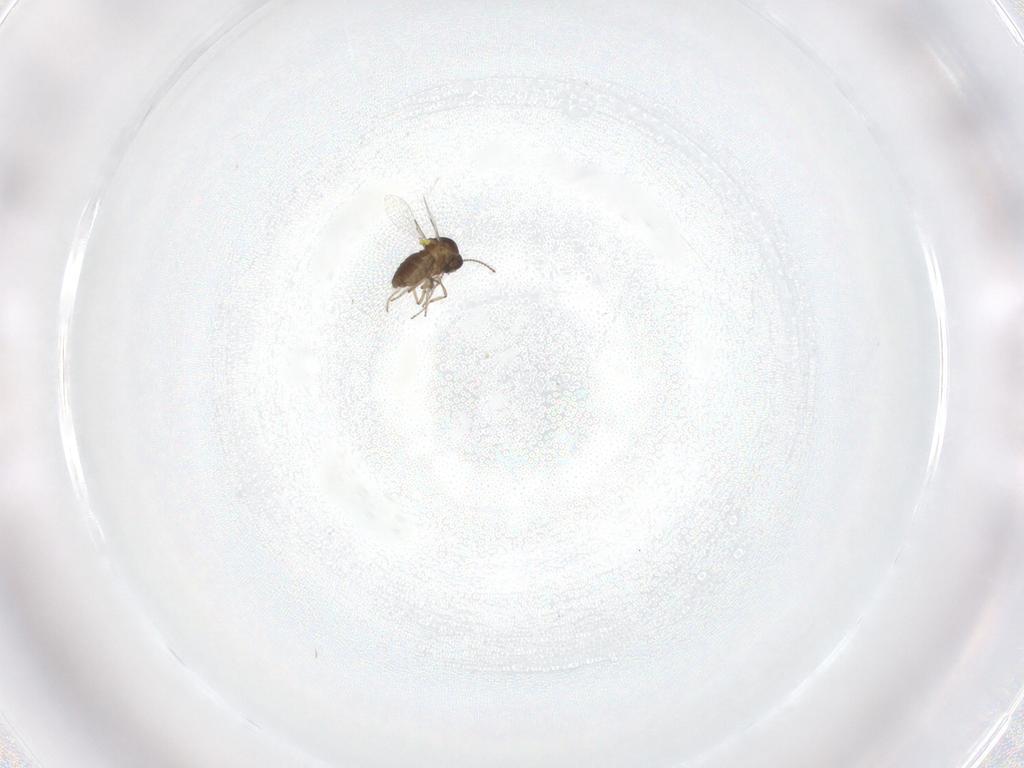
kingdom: Animalia
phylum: Arthropoda
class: Insecta
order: Diptera
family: Ceratopogonidae
